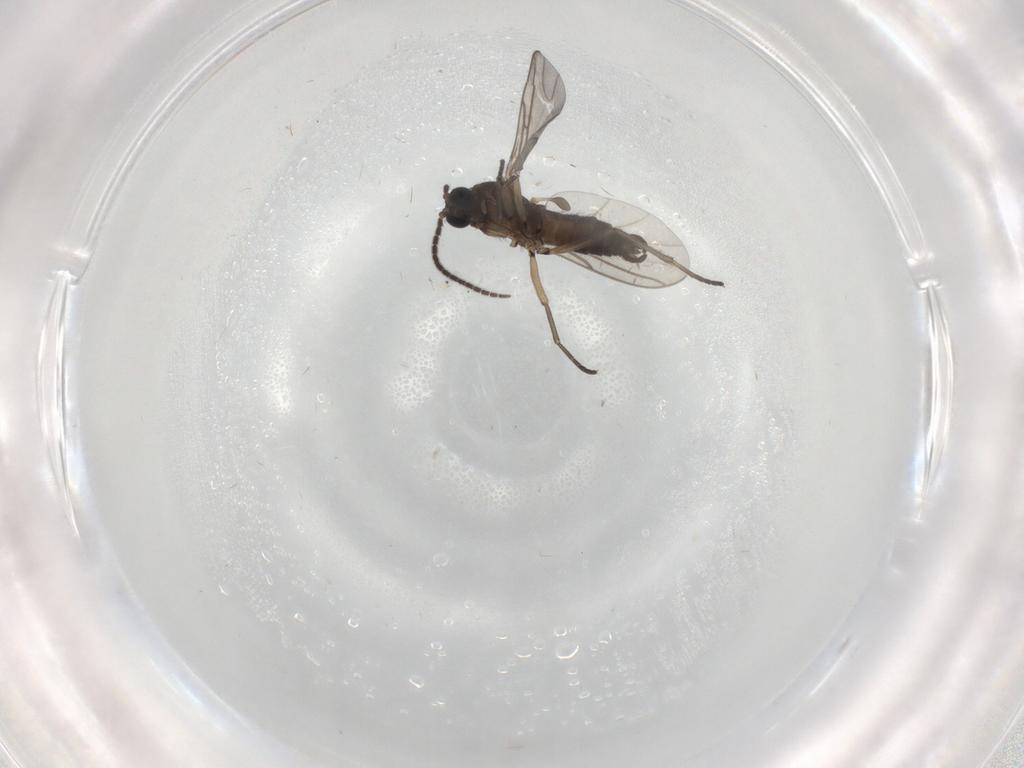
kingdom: Animalia
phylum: Arthropoda
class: Insecta
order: Diptera
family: Sciaridae
